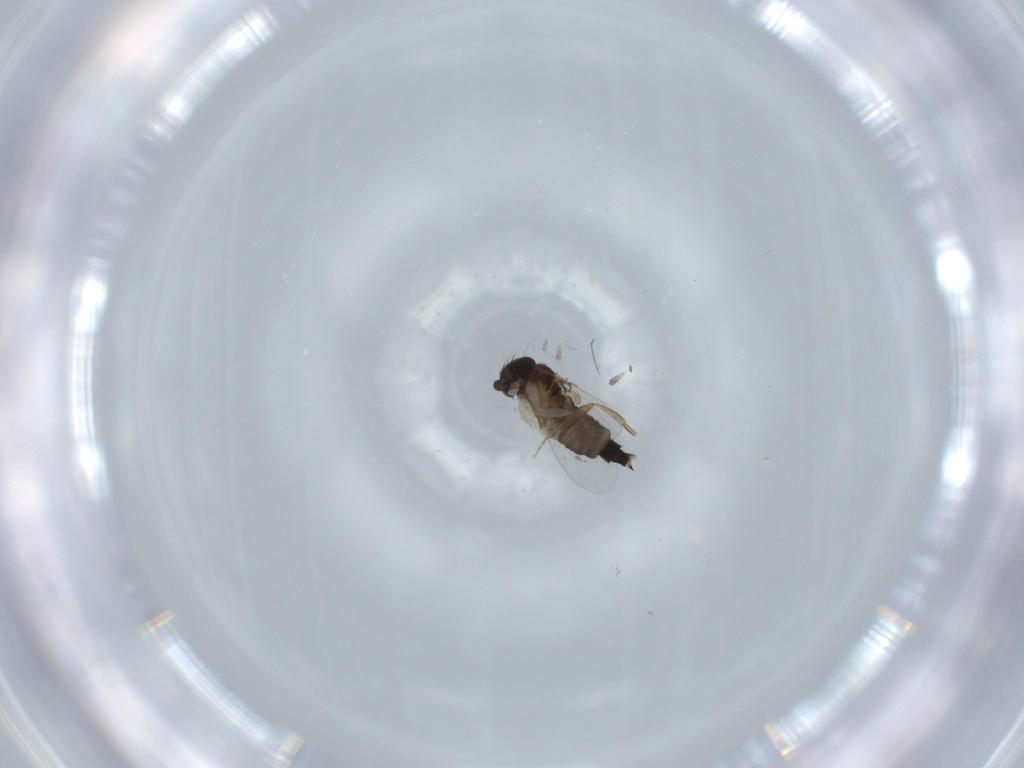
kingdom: Animalia
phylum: Arthropoda
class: Insecta
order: Diptera
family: Phoridae
